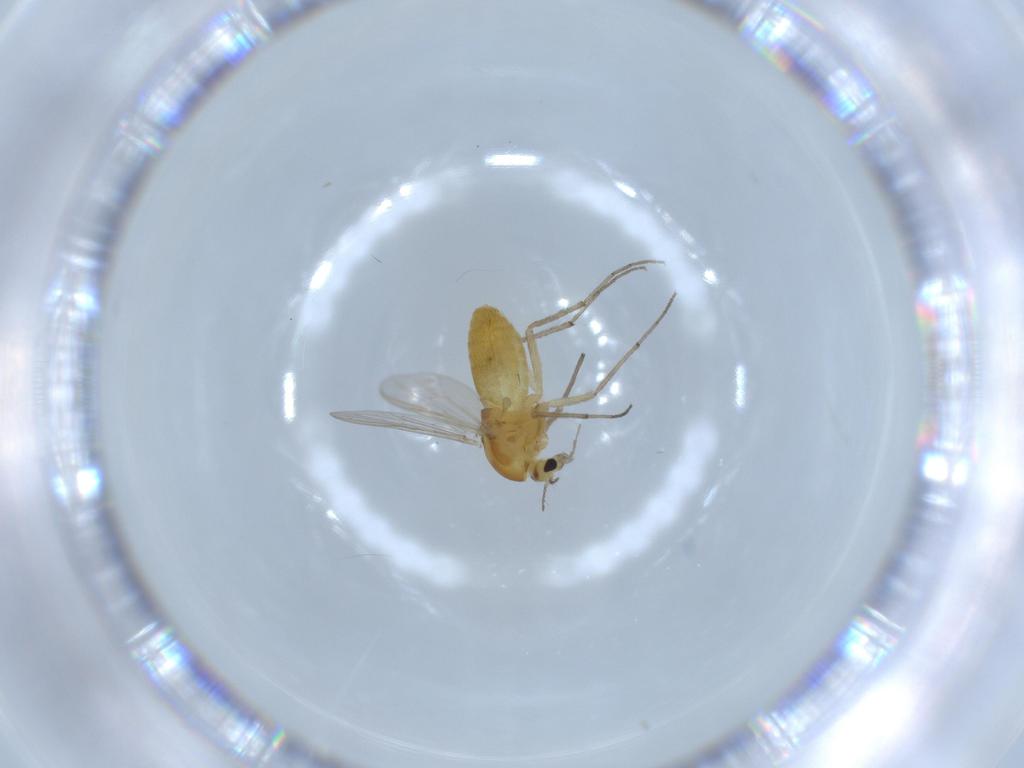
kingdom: Animalia
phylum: Arthropoda
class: Insecta
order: Diptera
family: Chironomidae
